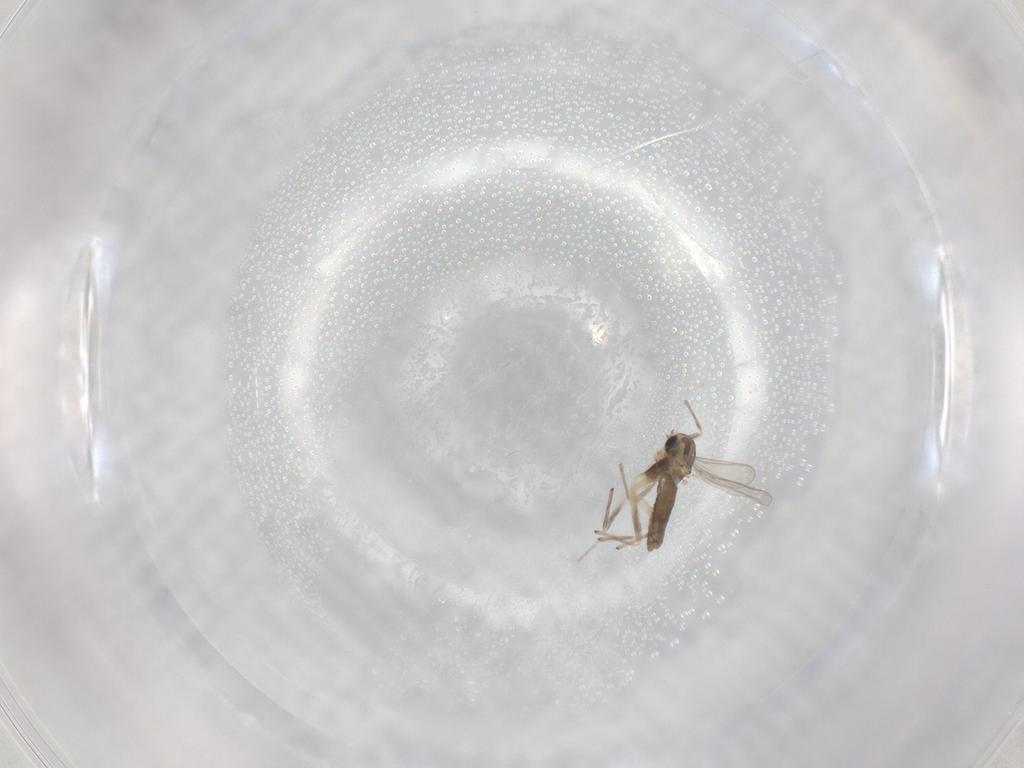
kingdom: Animalia
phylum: Arthropoda
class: Insecta
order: Diptera
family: Chironomidae
